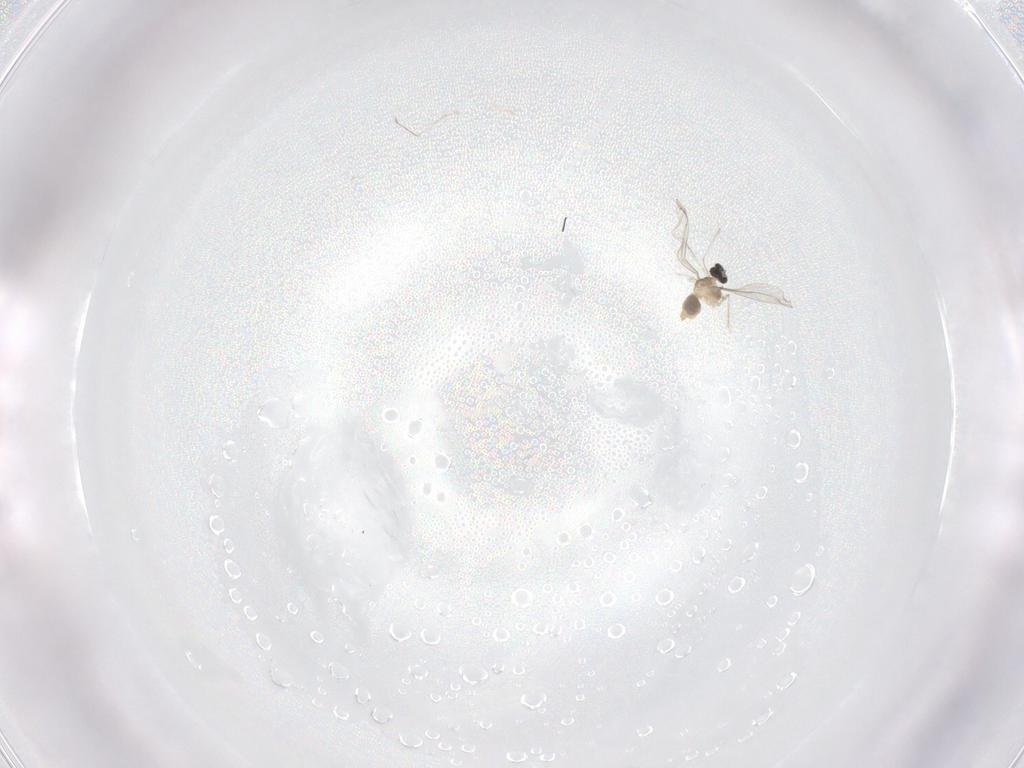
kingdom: Animalia
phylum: Arthropoda
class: Insecta
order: Diptera
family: Cecidomyiidae
